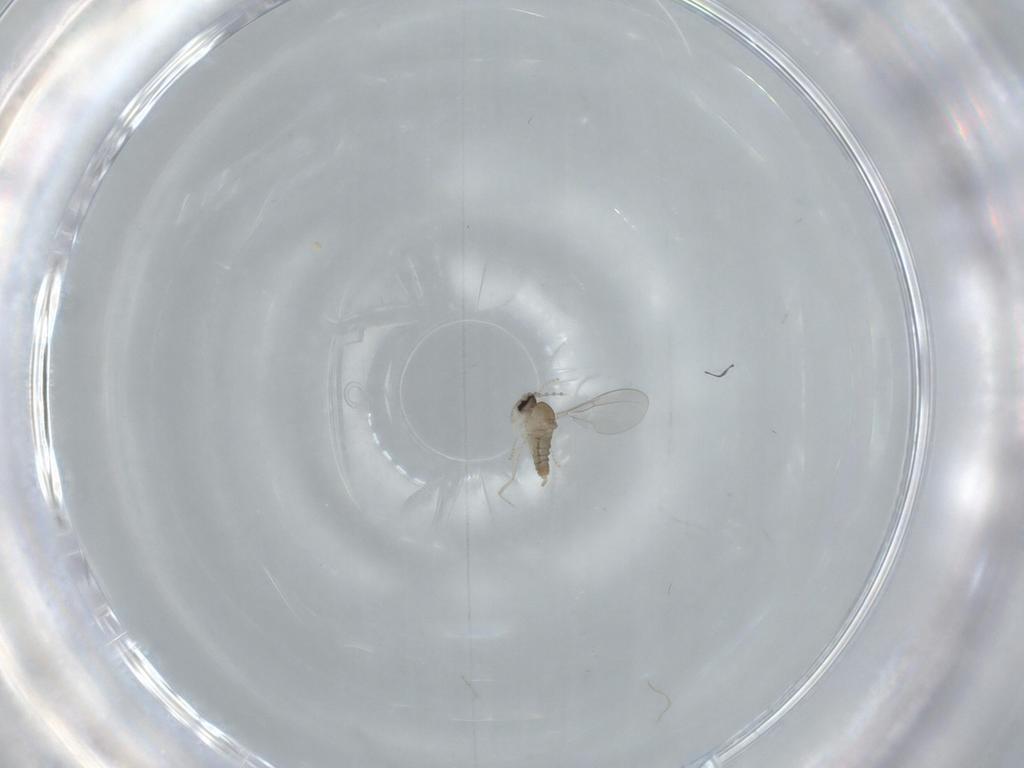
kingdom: Animalia
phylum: Arthropoda
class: Insecta
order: Diptera
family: Cecidomyiidae
